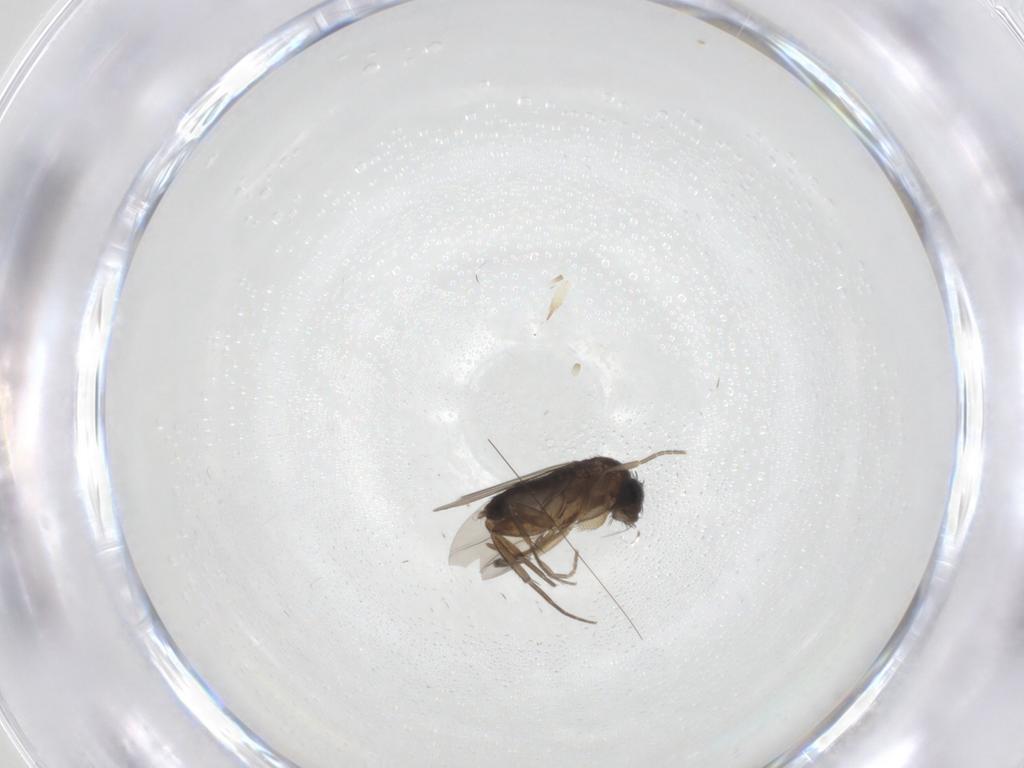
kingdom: Animalia
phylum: Arthropoda
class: Insecta
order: Diptera
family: Phoridae
